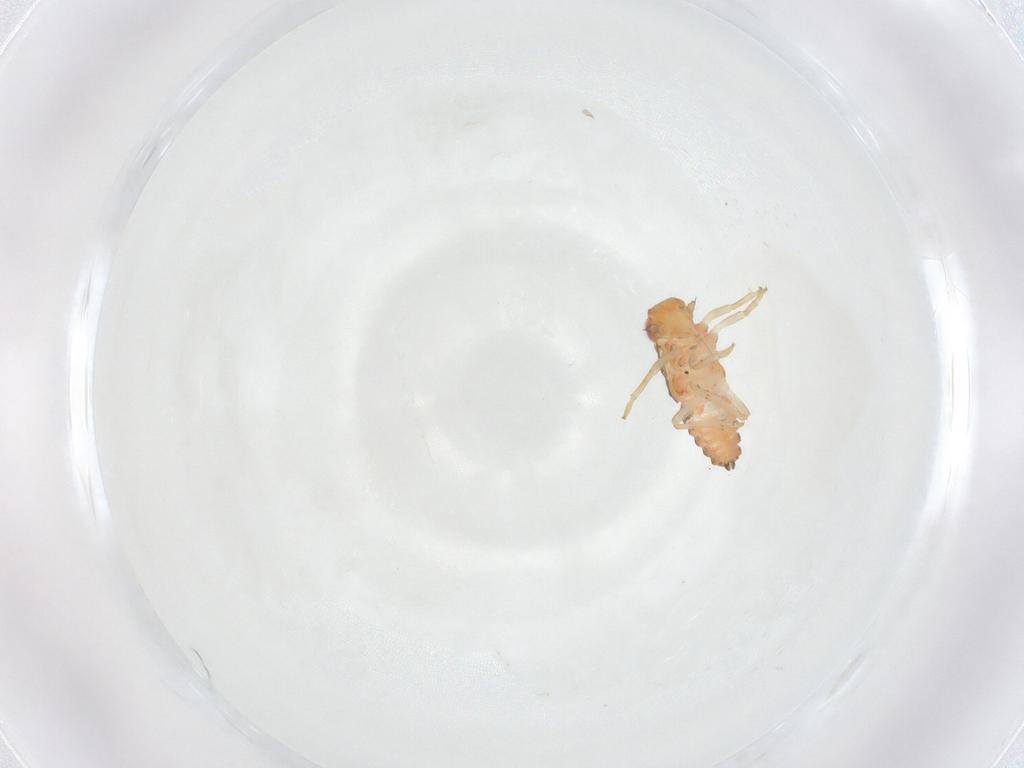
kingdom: Animalia
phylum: Arthropoda
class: Insecta
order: Hemiptera
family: Issidae
